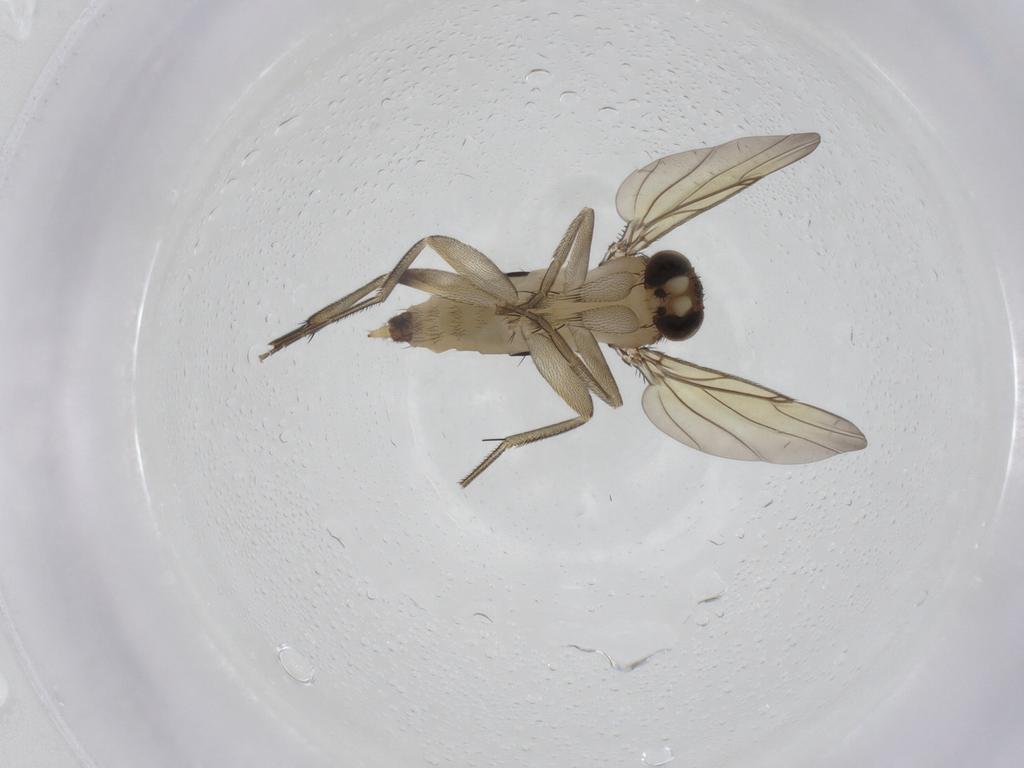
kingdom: Animalia
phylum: Arthropoda
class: Insecta
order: Diptera
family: Phoridae
